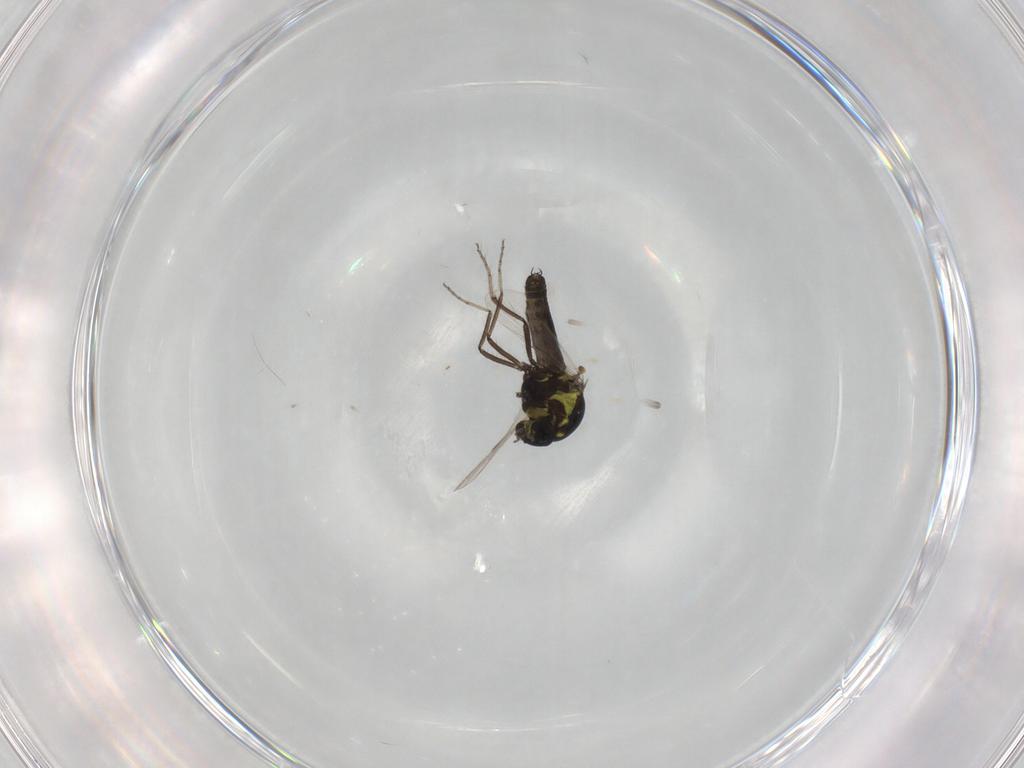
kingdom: Animalia
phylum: Arthropoda
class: Insecta
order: Diptera
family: Ceratopogonidae
